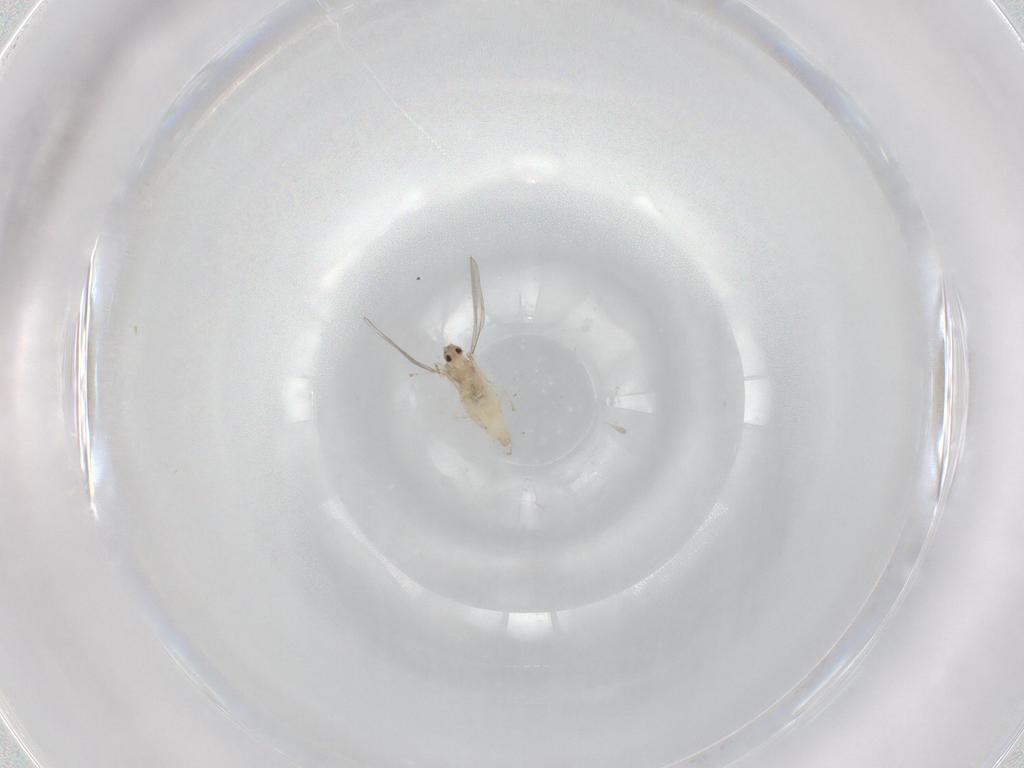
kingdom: Animalia
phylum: Arthropoda
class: Insecta
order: Diptera
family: Cecidomyiidae
